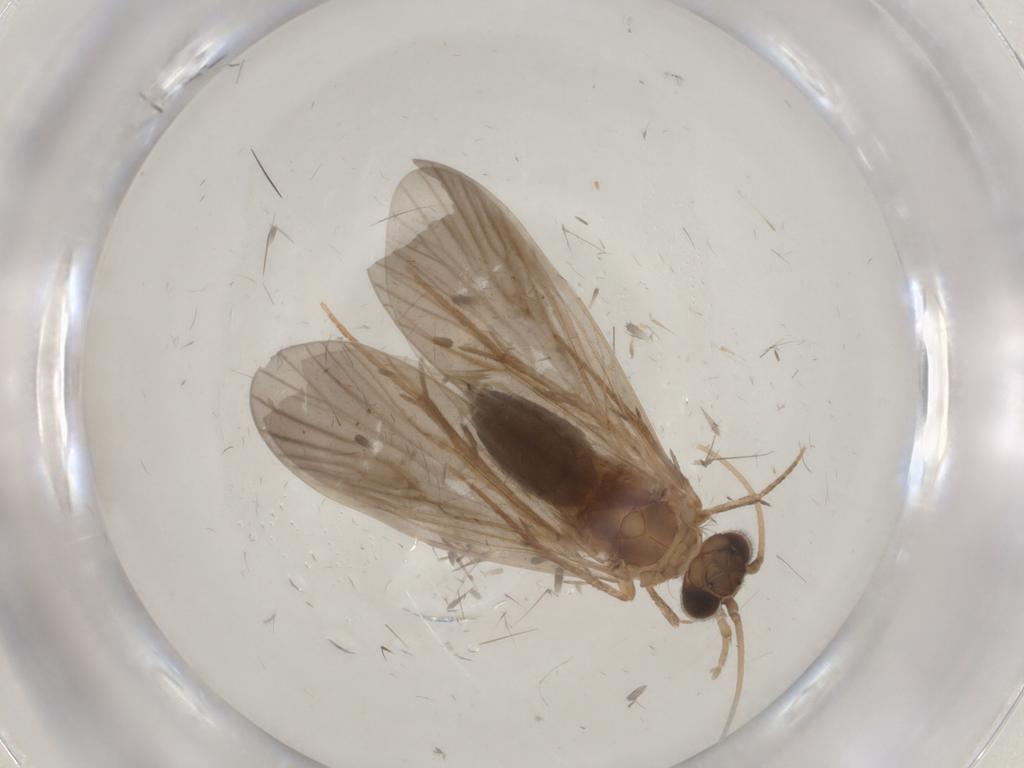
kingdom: Animalia
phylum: Arthropoda
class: Insecta
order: Trichoptera
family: Philopotamidae
